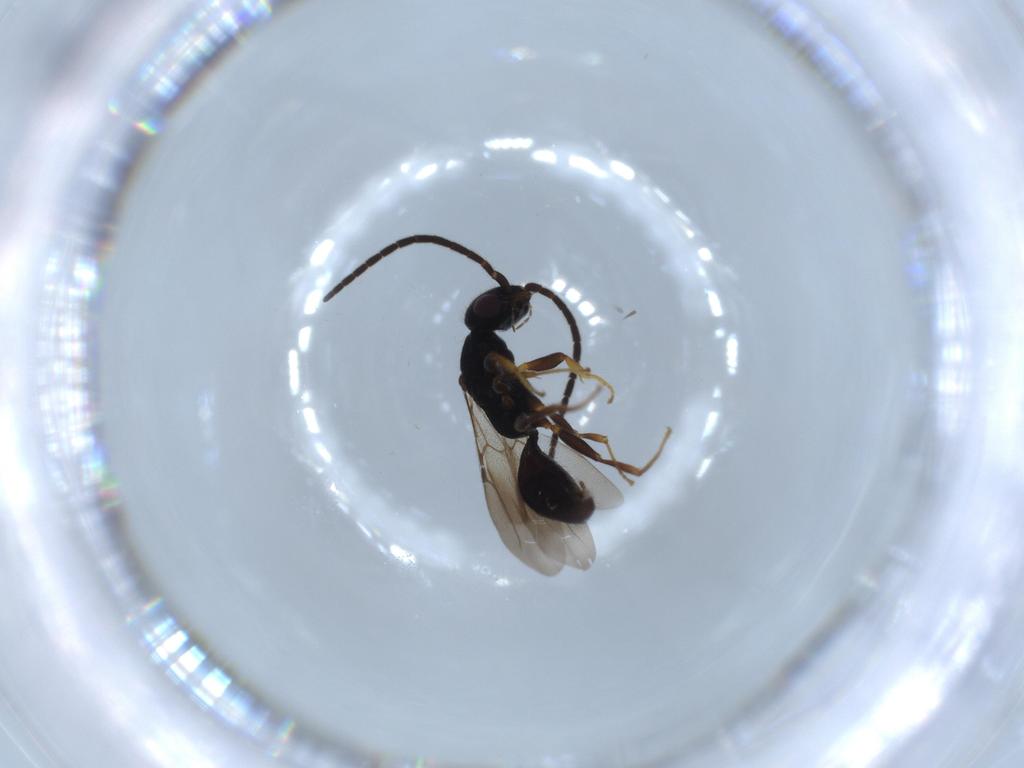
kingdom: Animalia
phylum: Arthropoda
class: Insecta
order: Hymenoptera
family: Bethylidae
